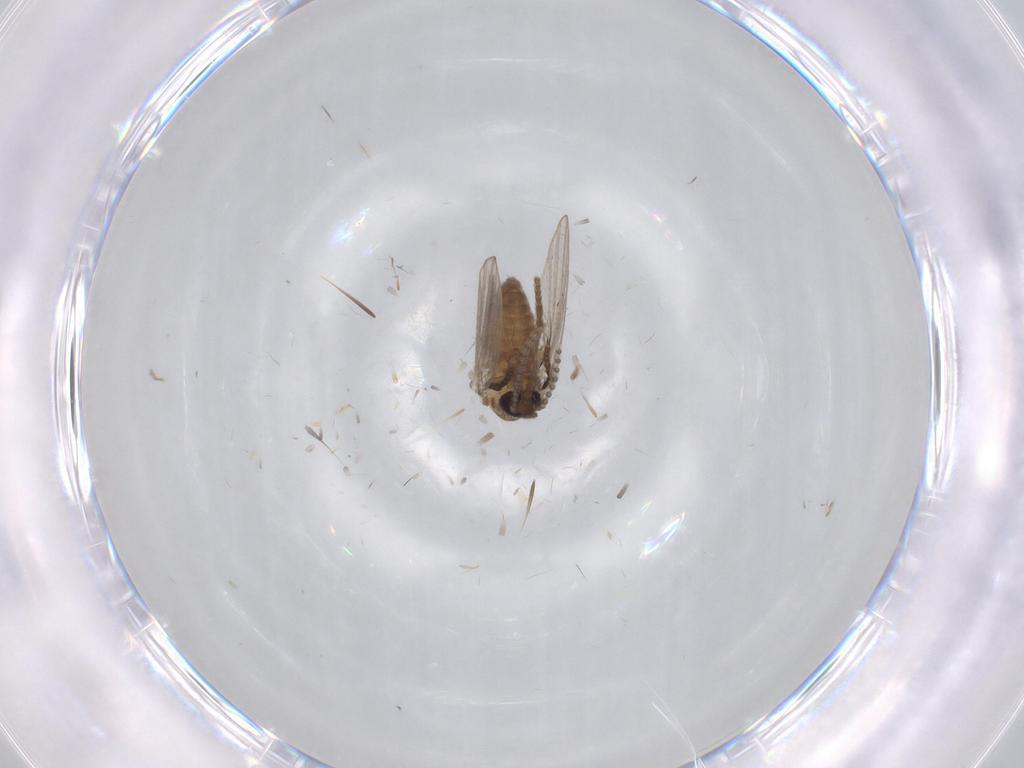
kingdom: Animalia
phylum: Arthropoda
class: Insecta
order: Diptera
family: Psychodidae
